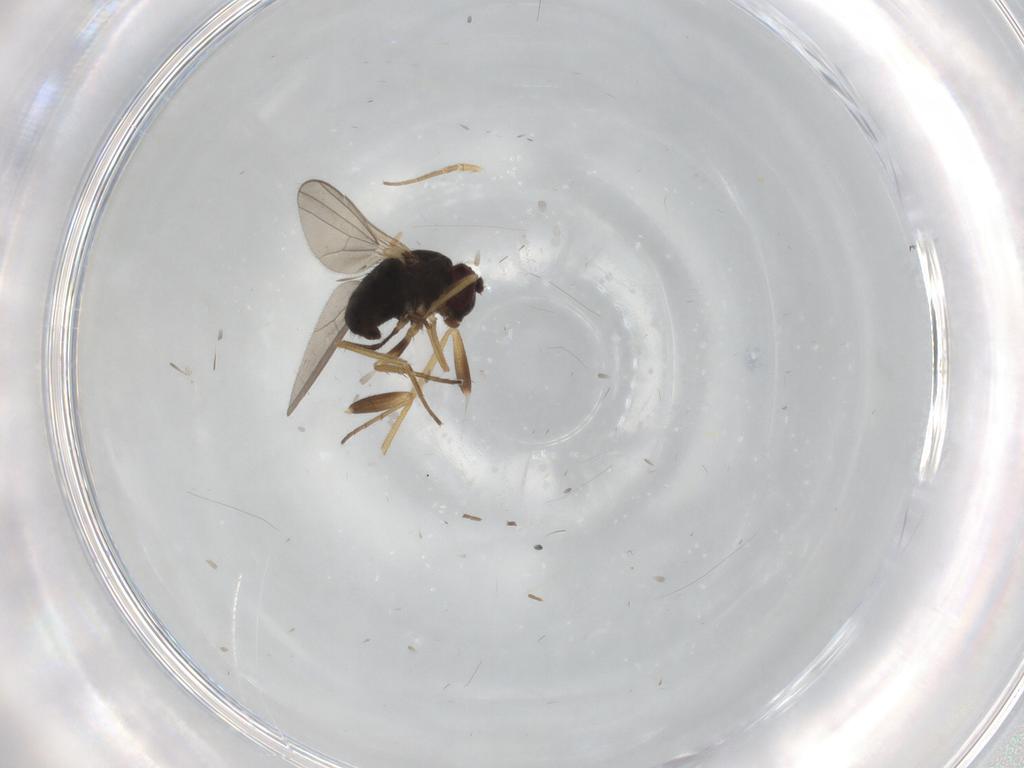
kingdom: Animalia
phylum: Arthropoda
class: Insecta
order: Diptera
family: Dolichopodidae
